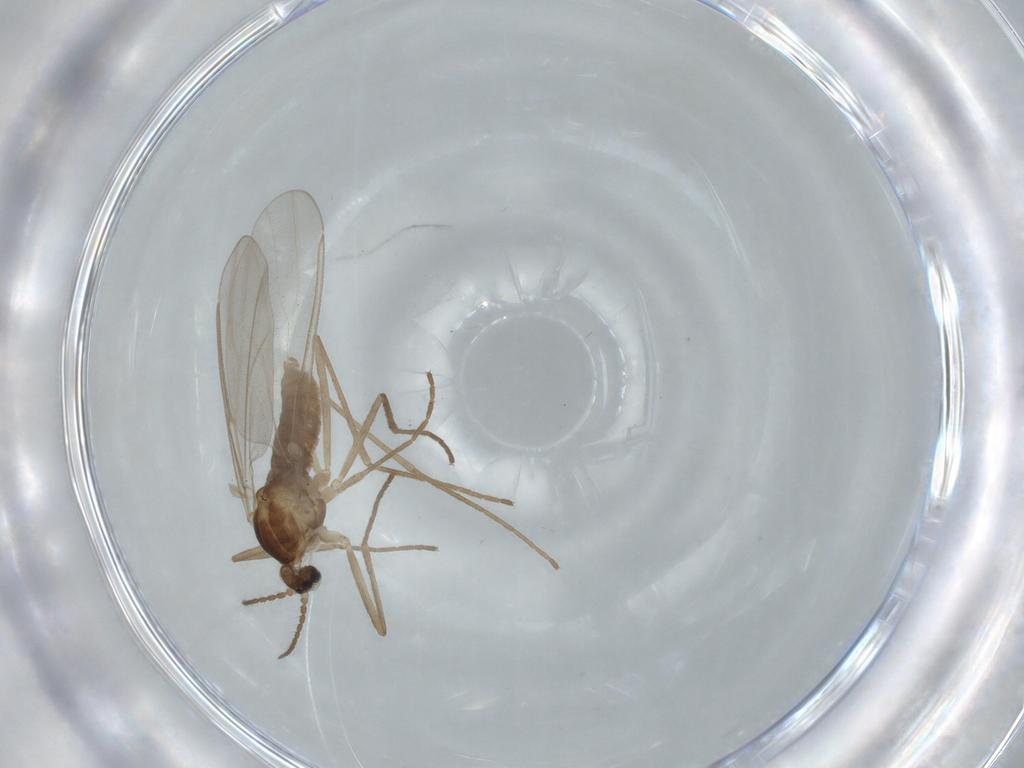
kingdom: Animalia
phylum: Arthropoda
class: Insecta
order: Diptera
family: Cecidomyiidae
